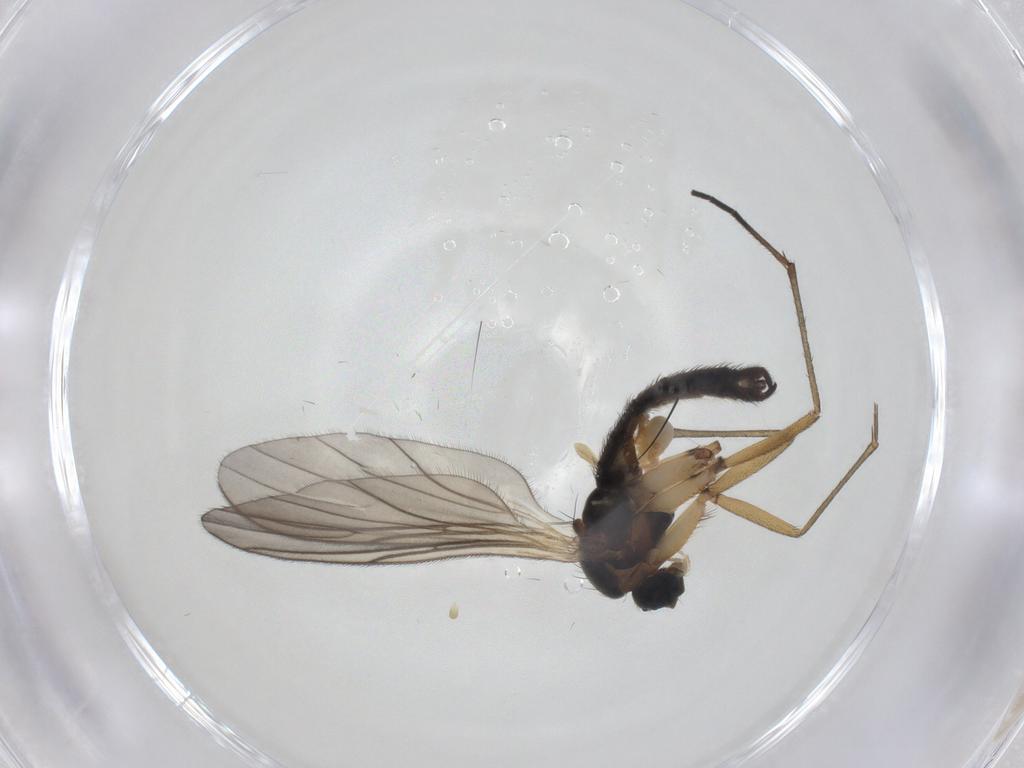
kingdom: Animalia
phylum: Arthropoda
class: Insecta
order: Diptera
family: Sciaridae
